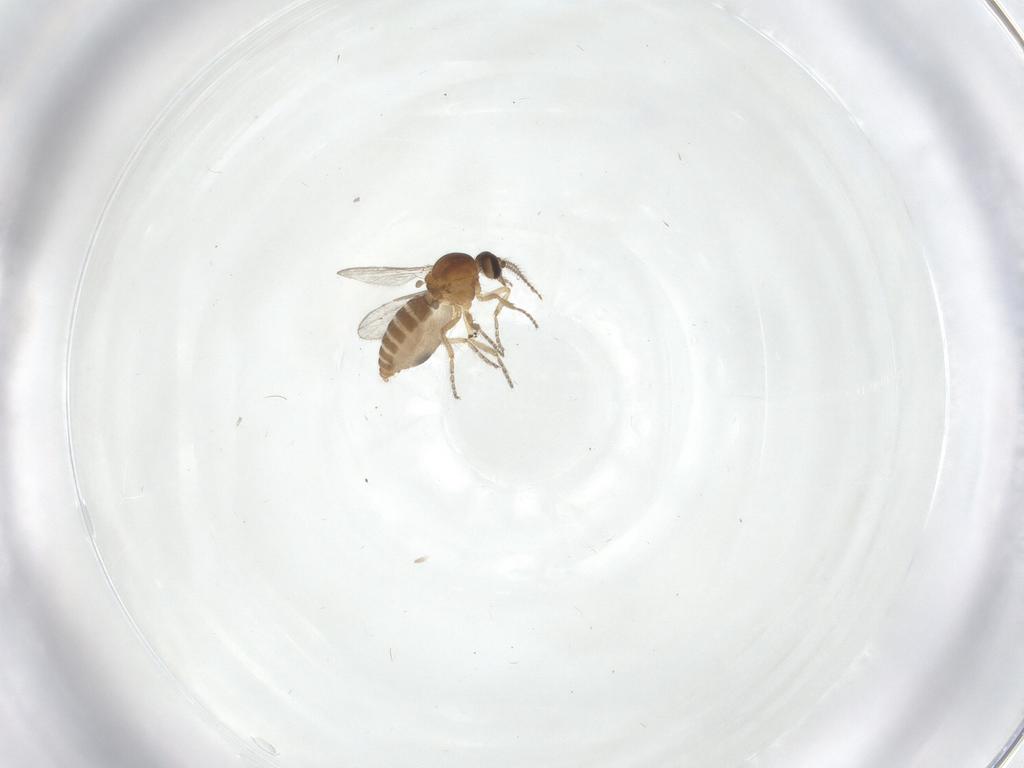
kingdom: Animalia
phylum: Arthropoda
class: Insecta
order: Diptera
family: Ceratopogonidae
